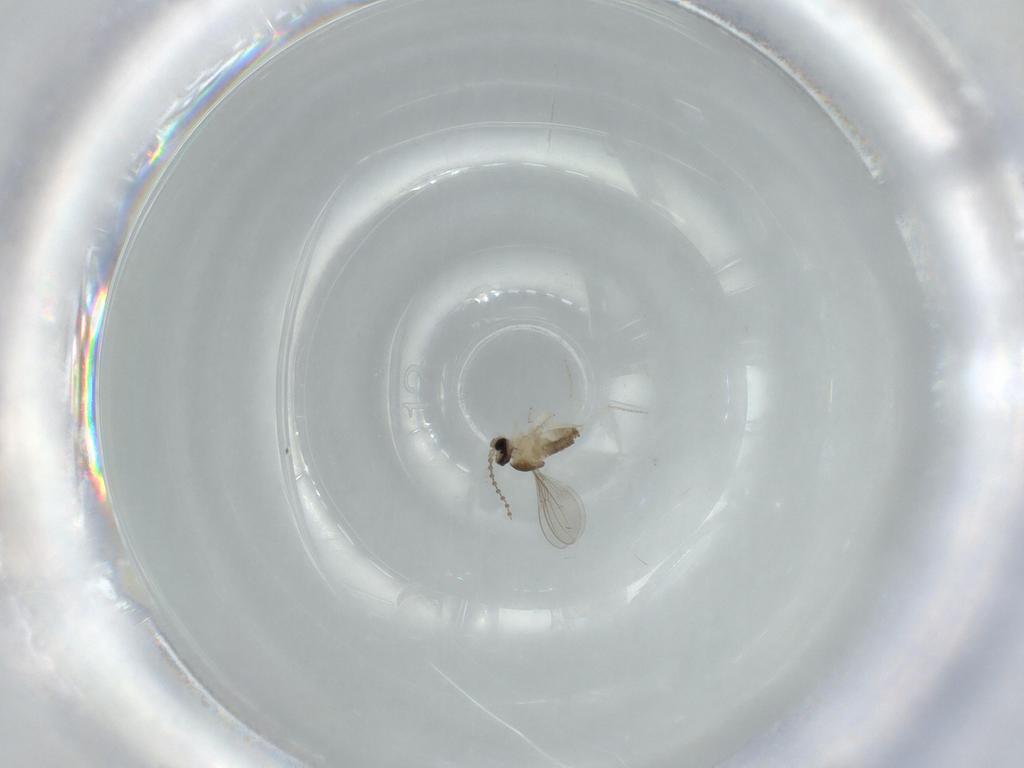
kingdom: Animalia
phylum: Arthropoda
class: Insecta
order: Diptera
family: Cecidomyiidae
